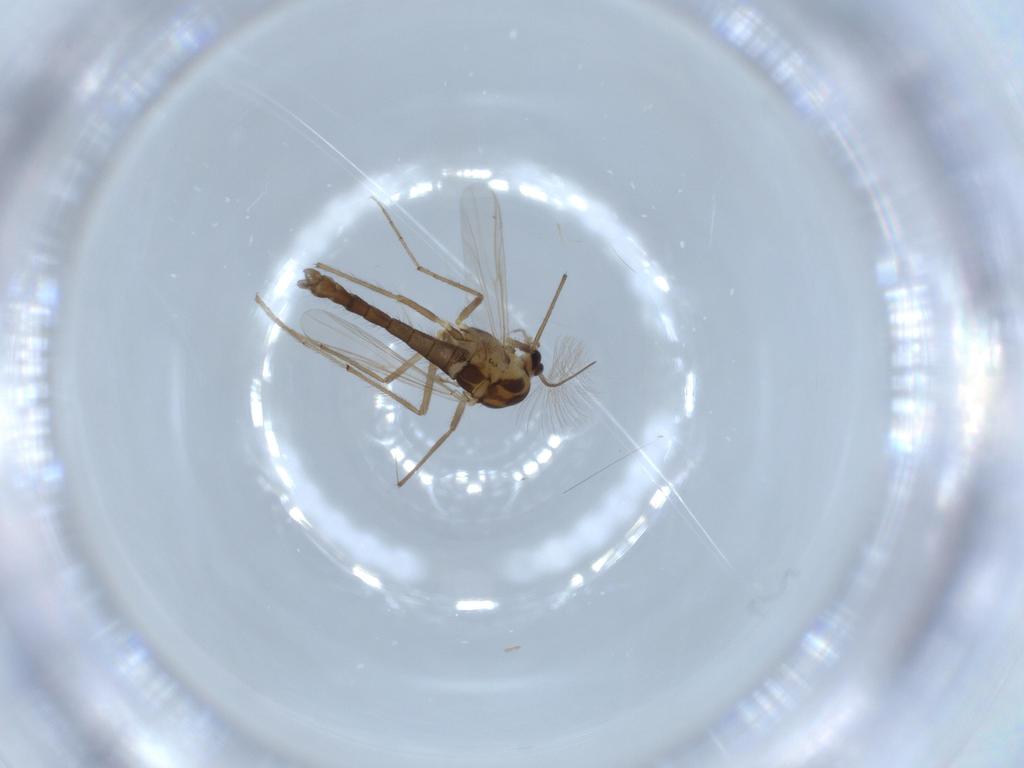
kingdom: Animalia
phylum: Arthropoda
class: Insecta
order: Diptera
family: Chironomidae
